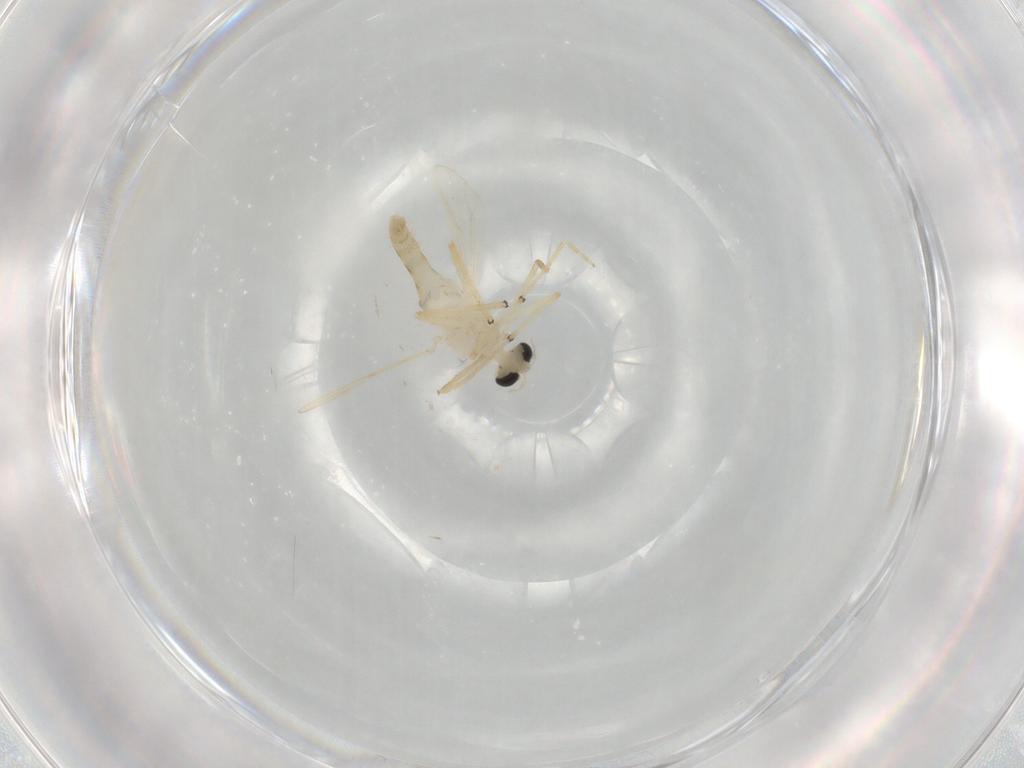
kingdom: Animalia
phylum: Arthropoda
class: Insecta
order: Diptera
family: Chironomidae
